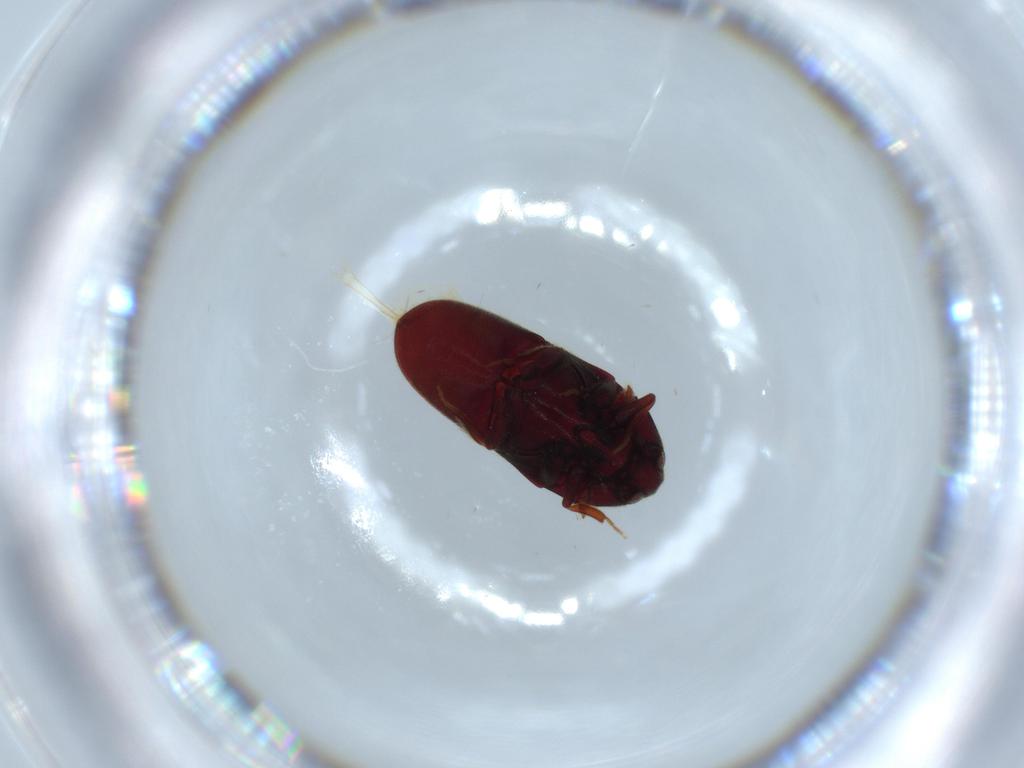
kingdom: Animalia
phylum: Arthropoda
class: Insecta
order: Coleoptera
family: Throscidae
